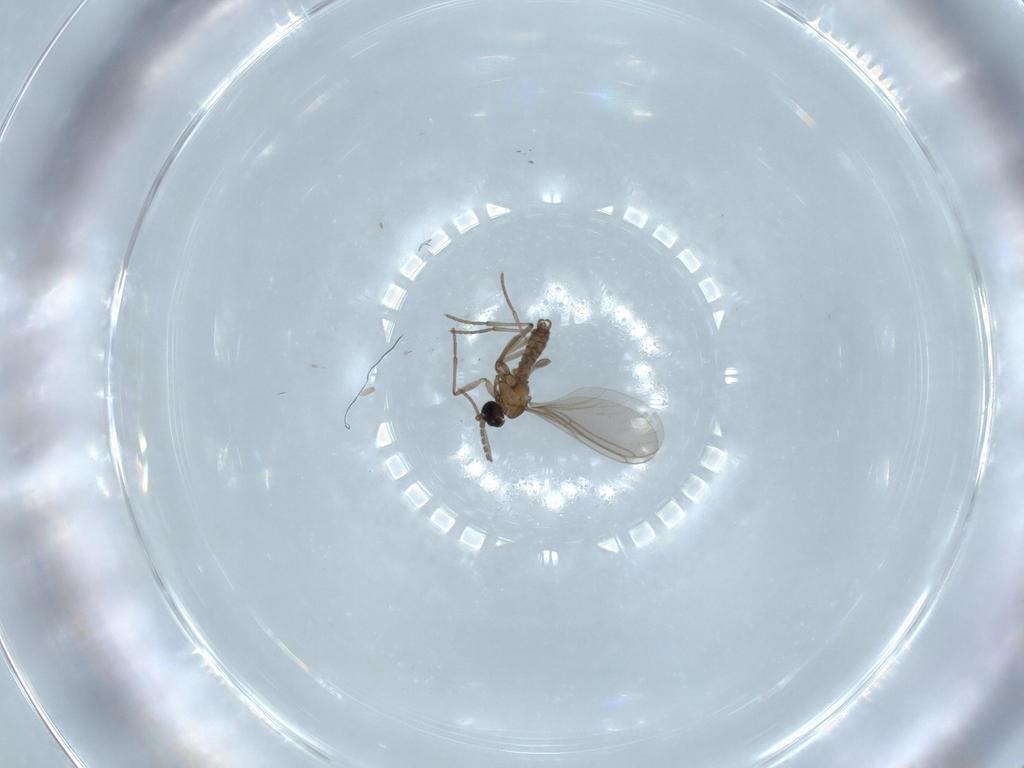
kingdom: Animalia
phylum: Arthropoda
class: Insecta
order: Diptera
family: Sciaridae
